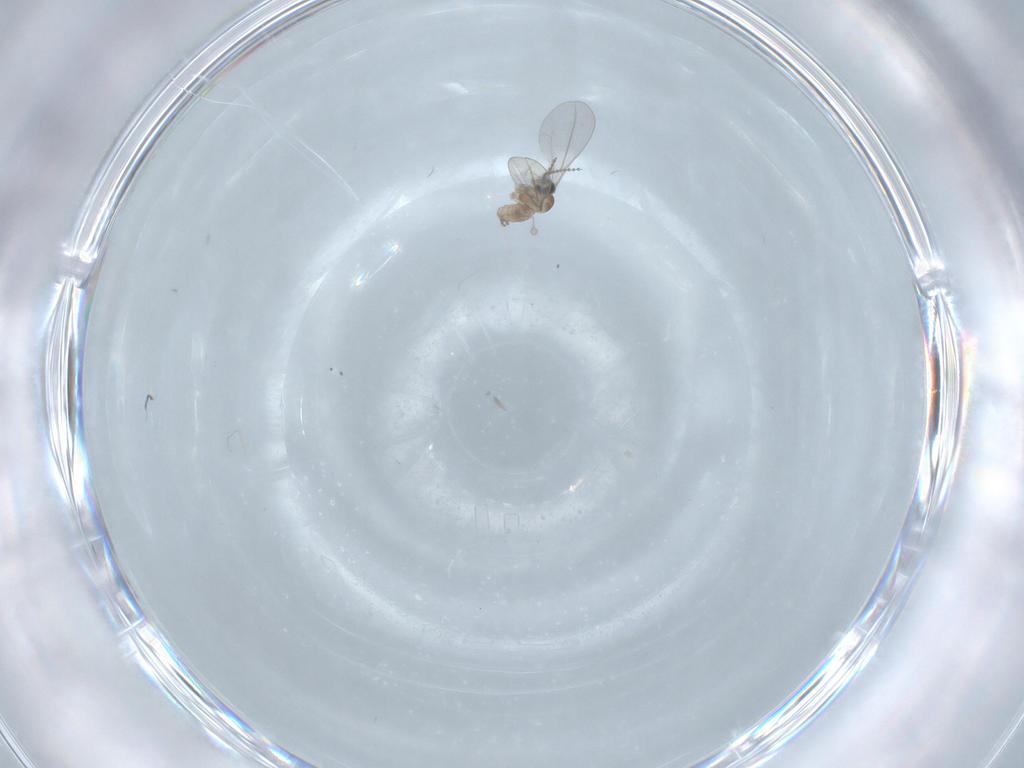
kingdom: Animalia
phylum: Arthropoda
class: Insecta
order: Diptera
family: Cecidomyiidae
